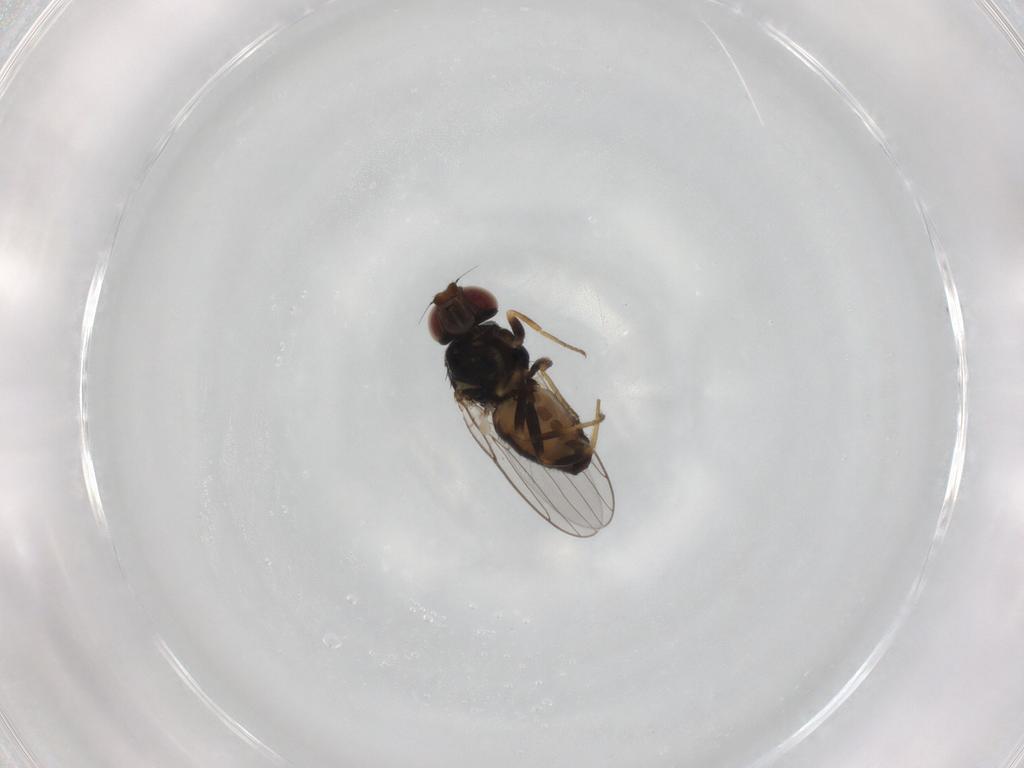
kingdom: Animalia
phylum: Arthropoda
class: Insecta
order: Diptera
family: Chloropidae
